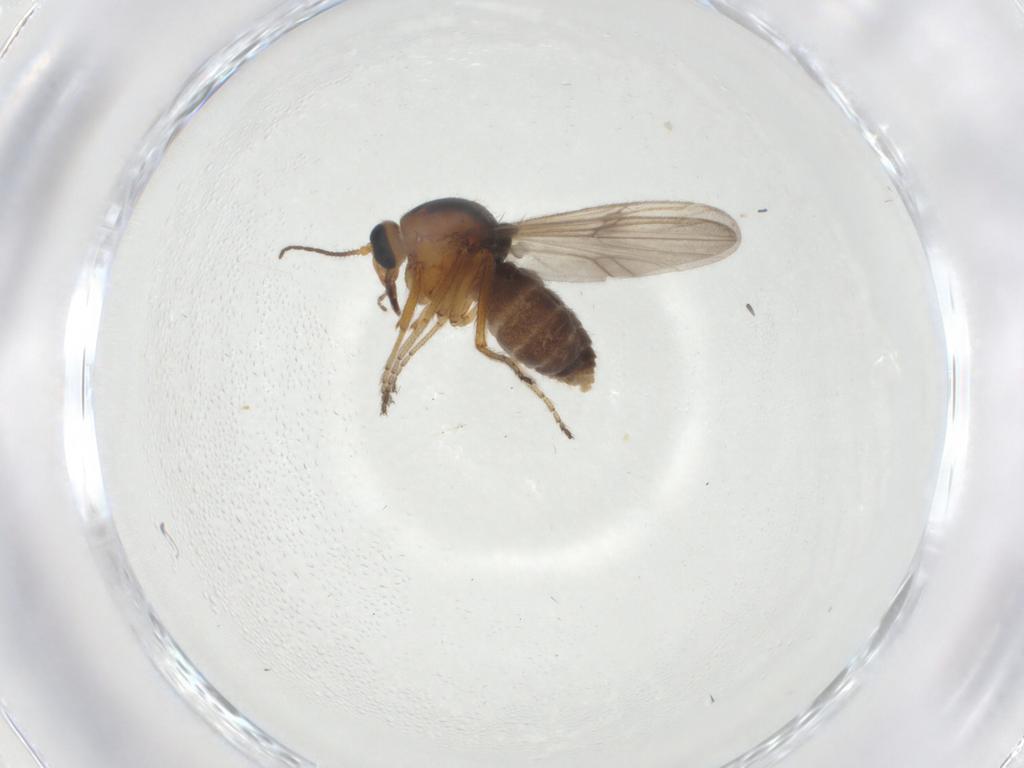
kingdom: Animalia
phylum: Arthropoda
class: Insecta
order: Diptera
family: Ceratopogonidae
